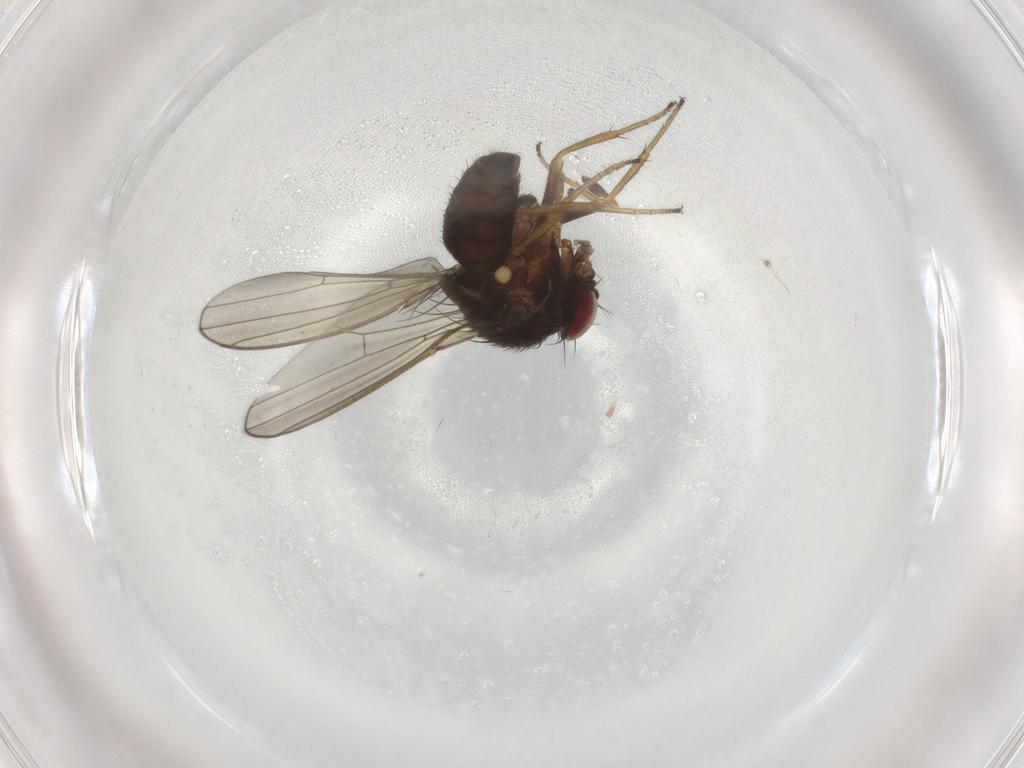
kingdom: Animalia
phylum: Arthropoda
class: Insecta
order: Diptera
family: Drosophilidae
